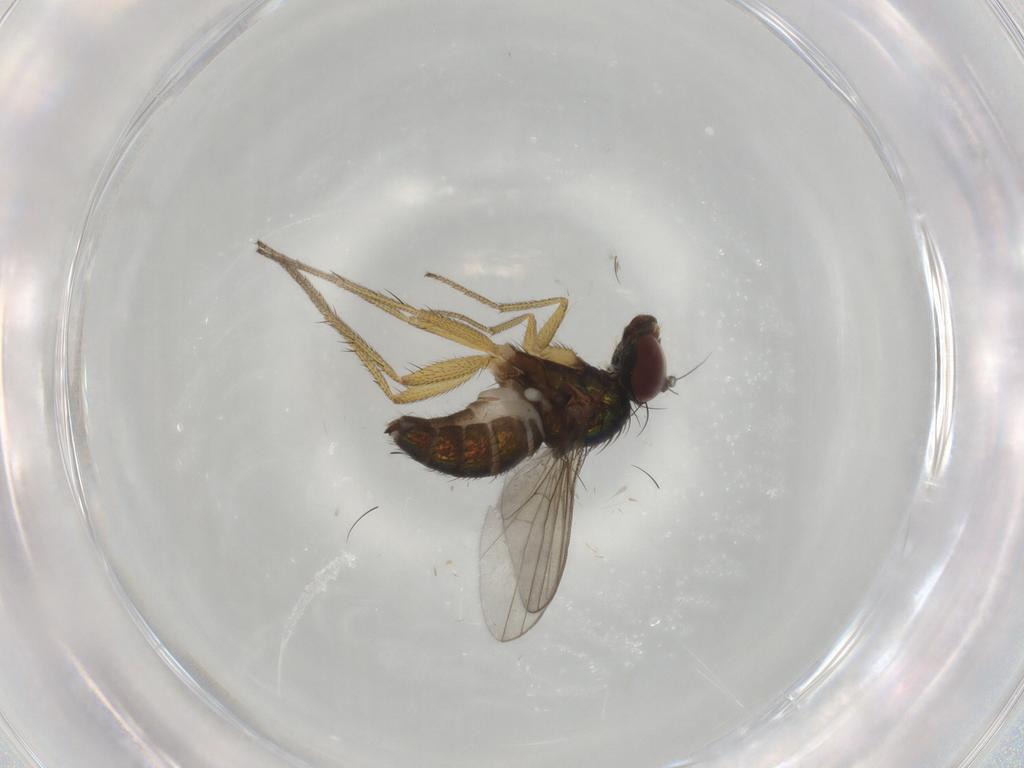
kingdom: Animalia
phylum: Arthropoda
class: Insecta
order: Diptera
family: Dolichopodidae
